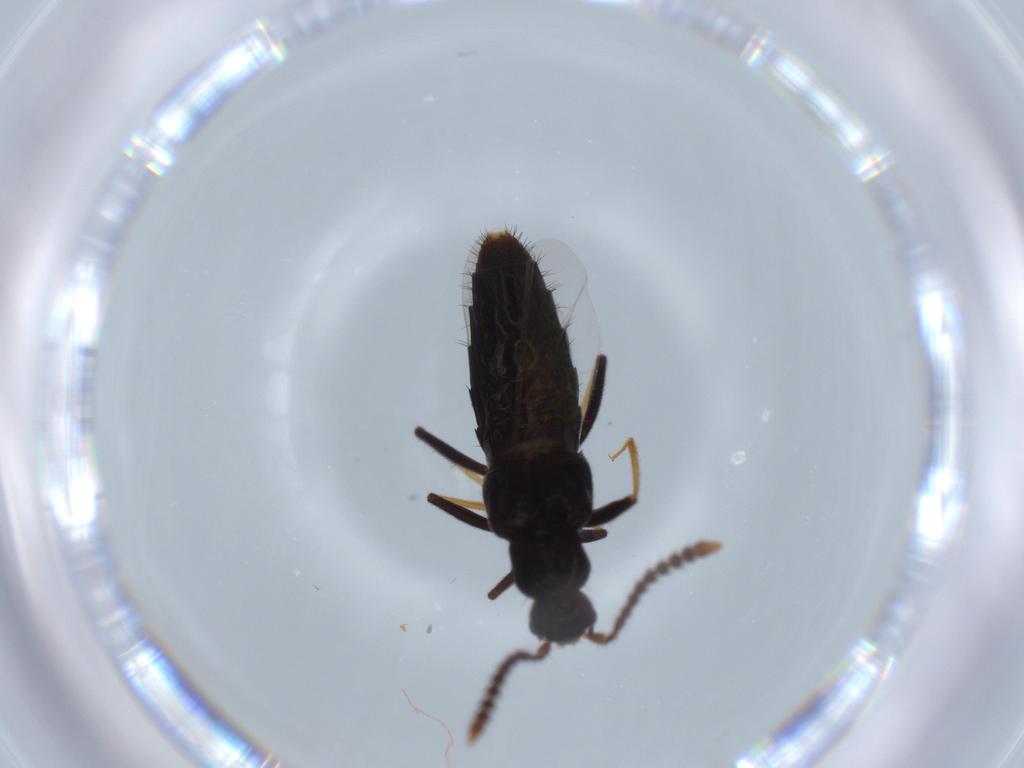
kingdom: Animalia
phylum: Arthropoda
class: Insecta
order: Coleoptera
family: Staphylinidae
